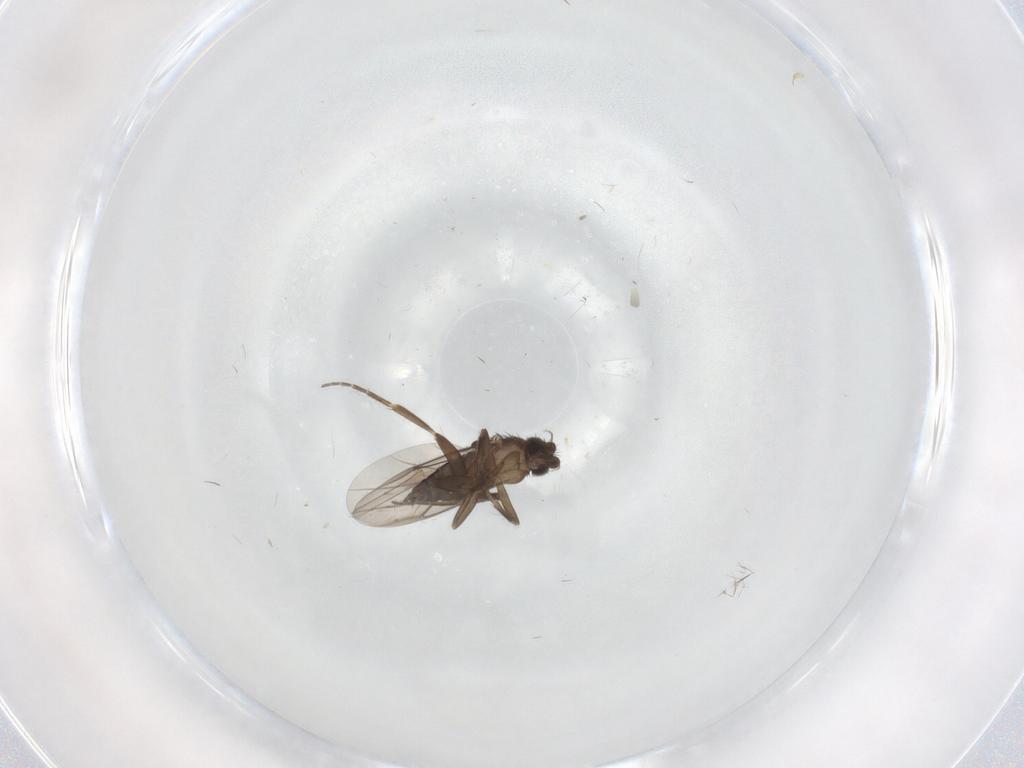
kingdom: Animalia
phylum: Arthropoda
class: Insecta
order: Diptera
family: Phoridae
